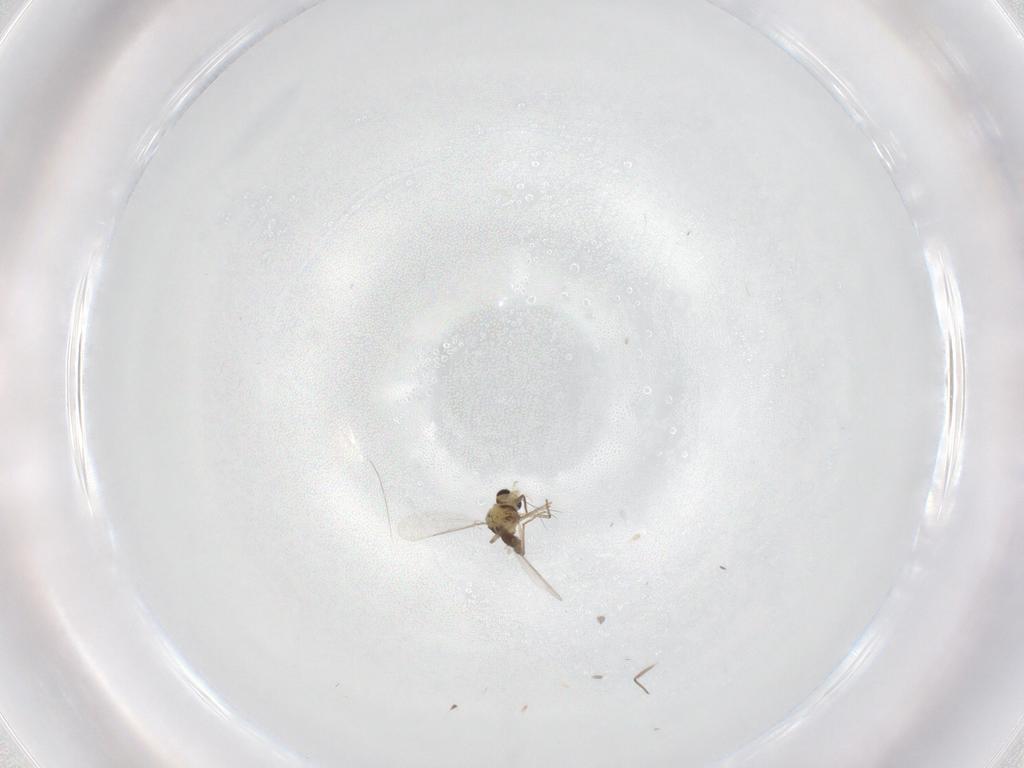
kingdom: Animalia
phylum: Arthropoda
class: Insecta
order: Diptera
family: Chironomidae
